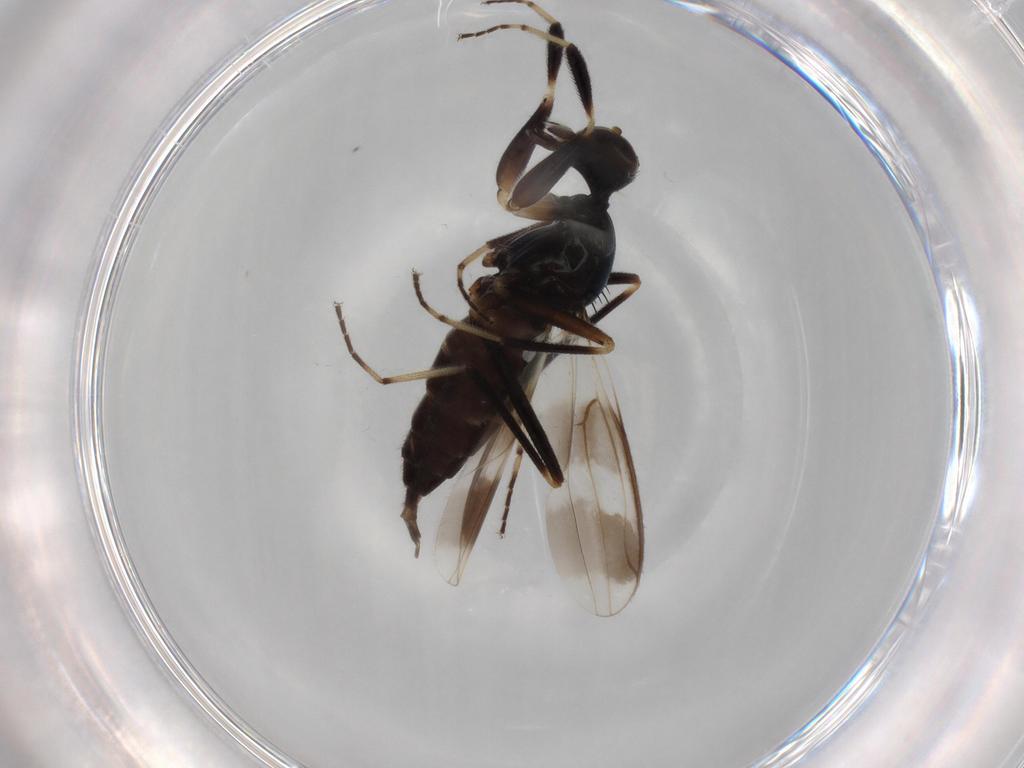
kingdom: Animalia
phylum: Arthropoda
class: Insecta
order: Diptera
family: Hybotidae
